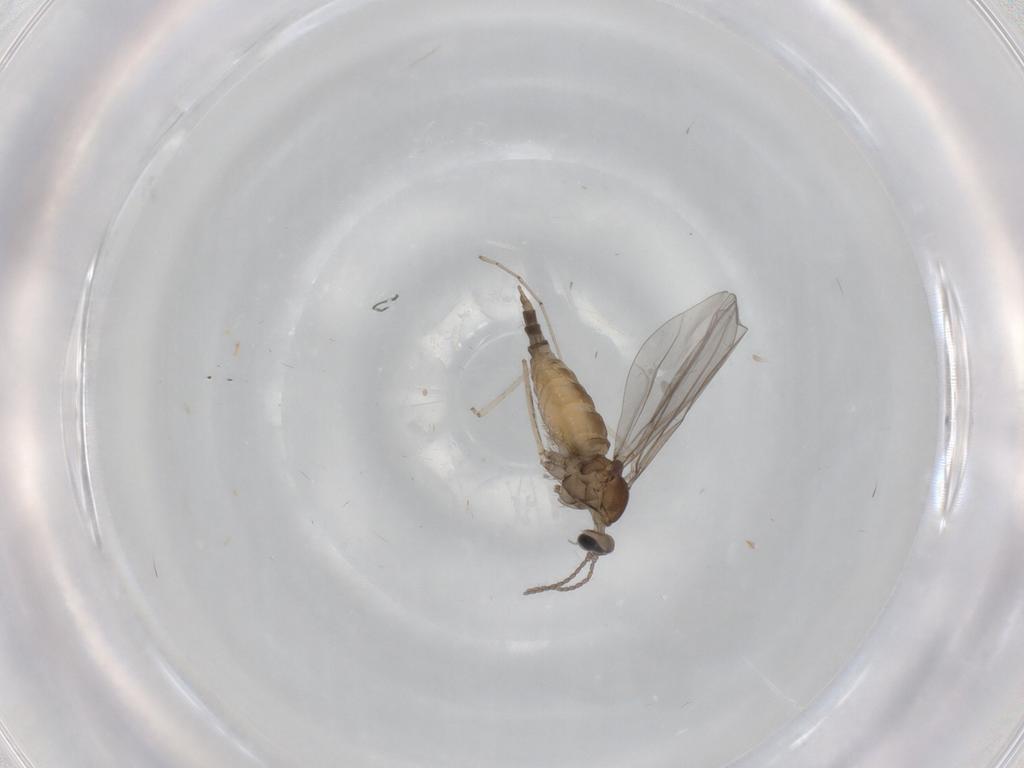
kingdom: Animalia
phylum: Arthropoda
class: Insecta
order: Diptera
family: Cecidomyiidae
